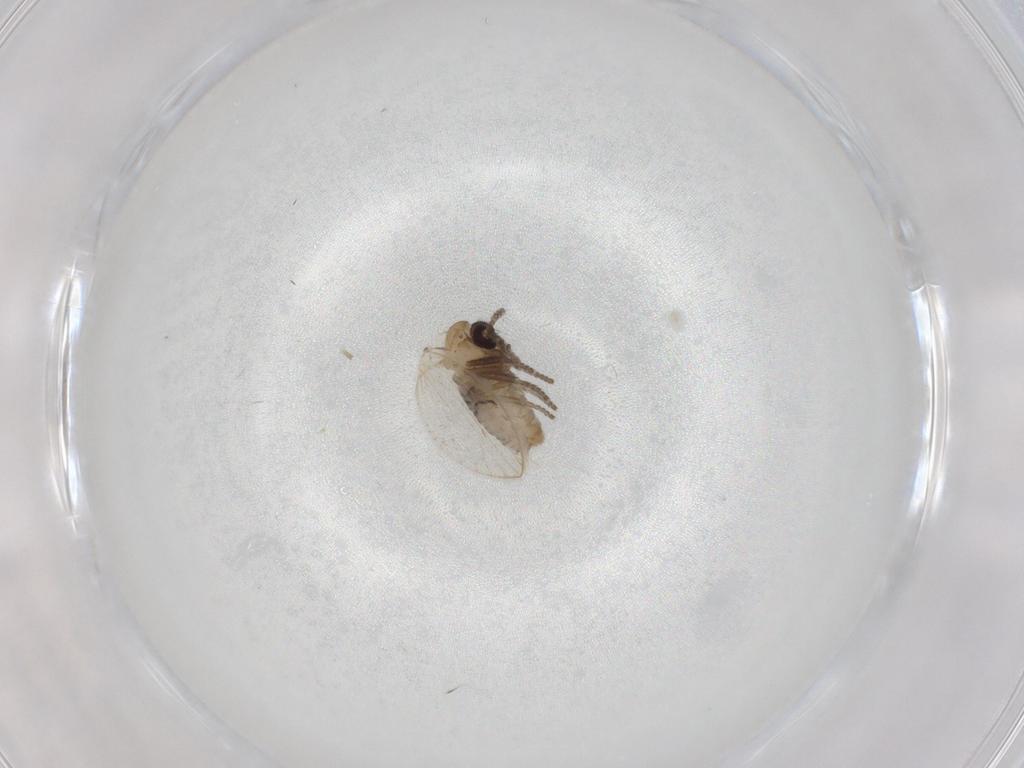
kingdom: Animalia
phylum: Arthropoda
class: Insecta
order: Diptera
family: Psychodidae
